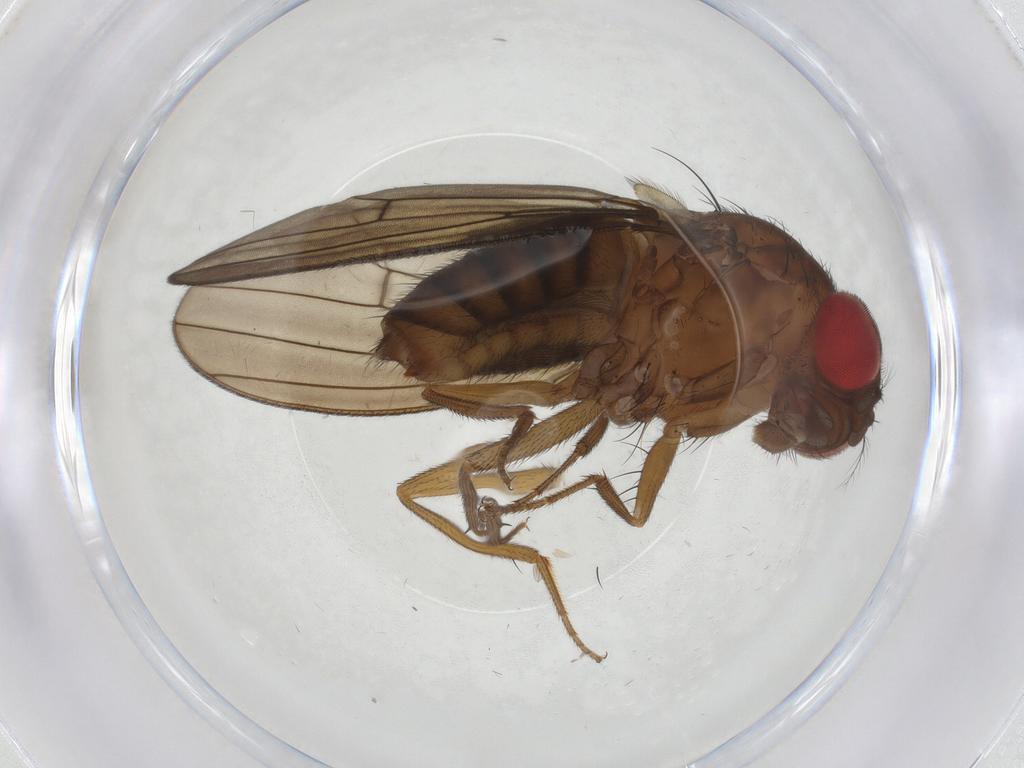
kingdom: Animalia
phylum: Arthropoda
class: Insecta
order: Diptera
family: Drosophilidae
